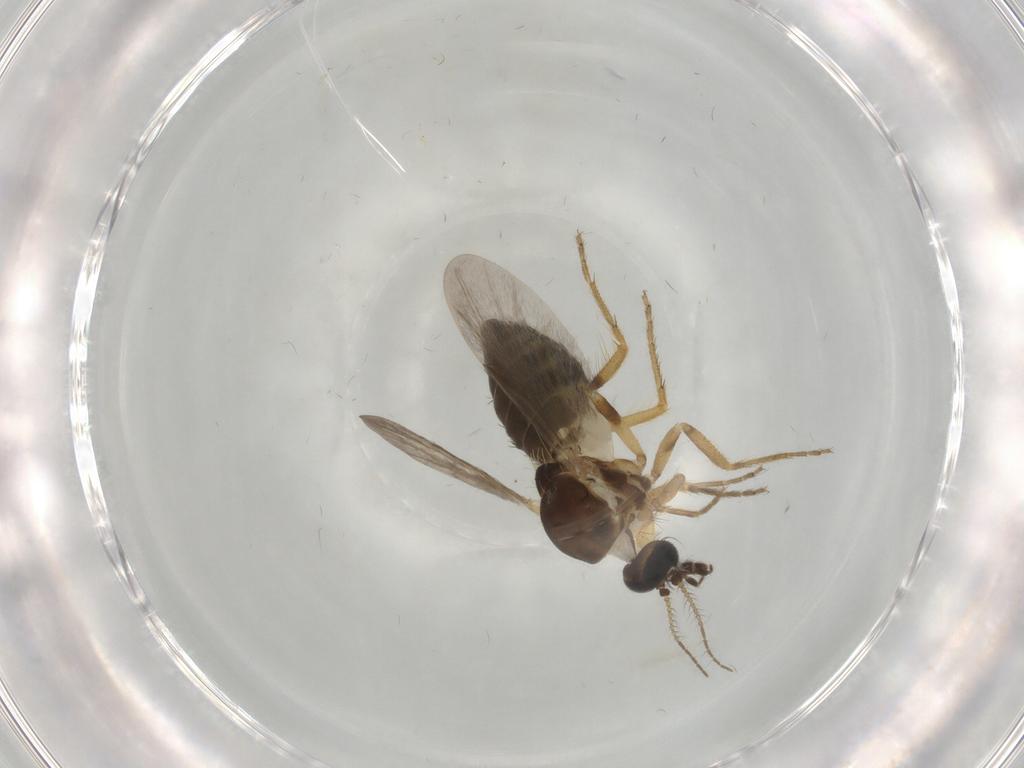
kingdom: Animalia
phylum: Arthropoda
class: Insecta
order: Diptera
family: Ceratopogonidae
